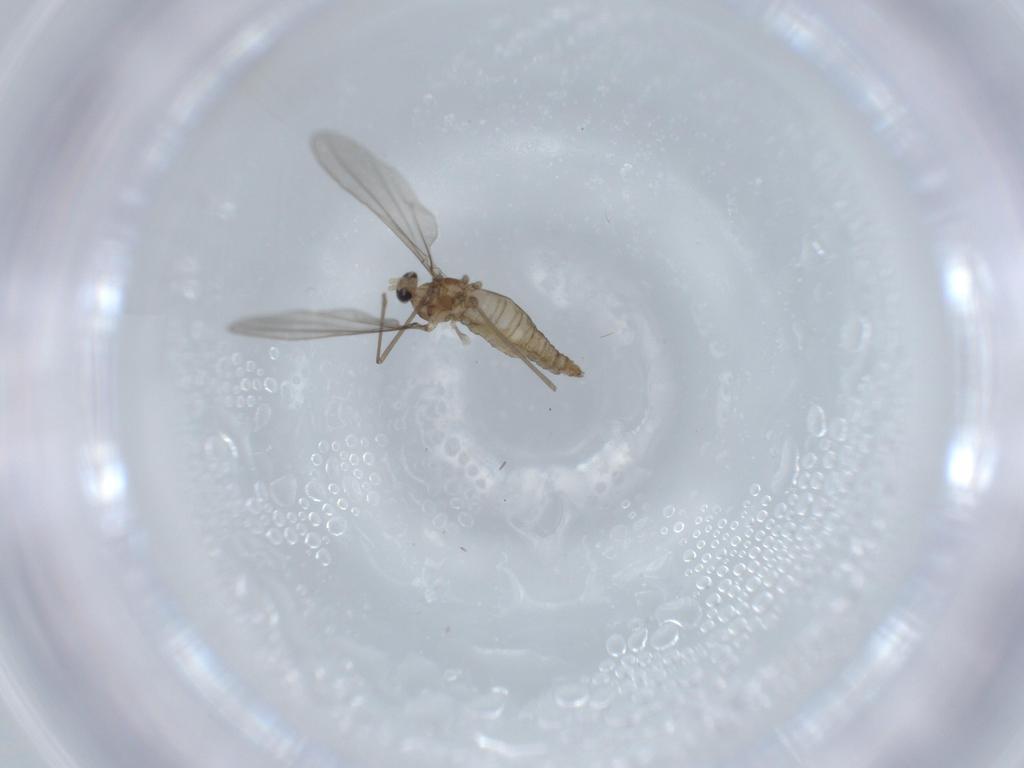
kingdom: Animalia
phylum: Arthropoda
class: Insecta
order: Diptera
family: Cecidomyiidae
